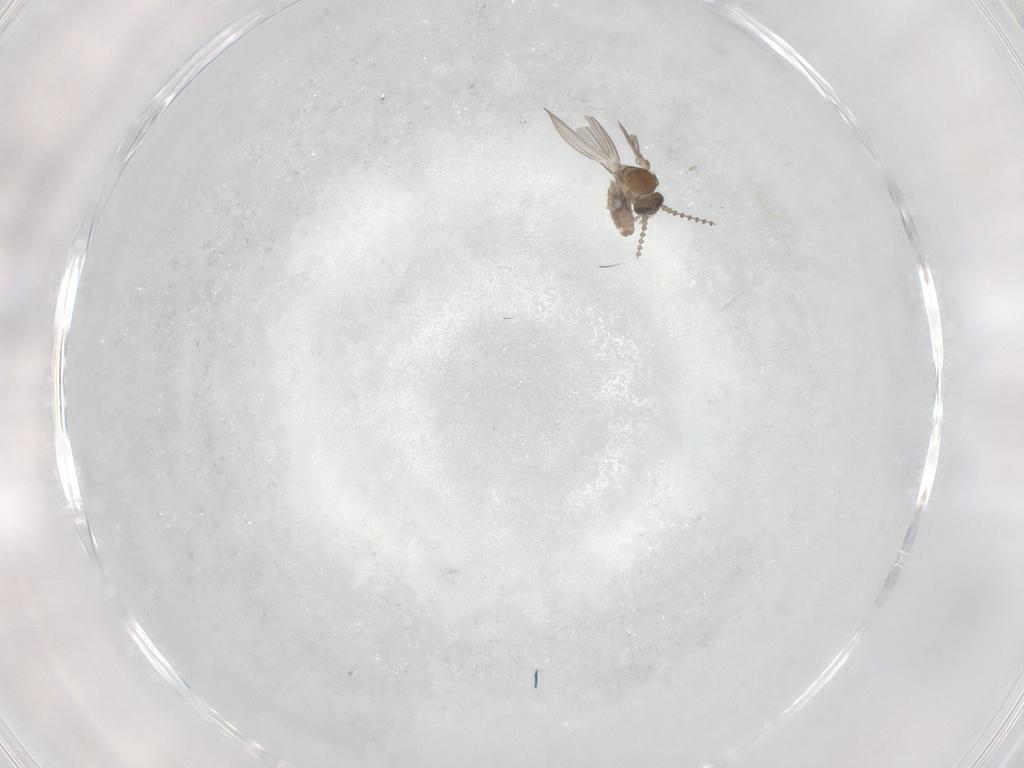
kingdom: Animalia
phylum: Arthropoda
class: Insecta
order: Diptera
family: Psychodidae
